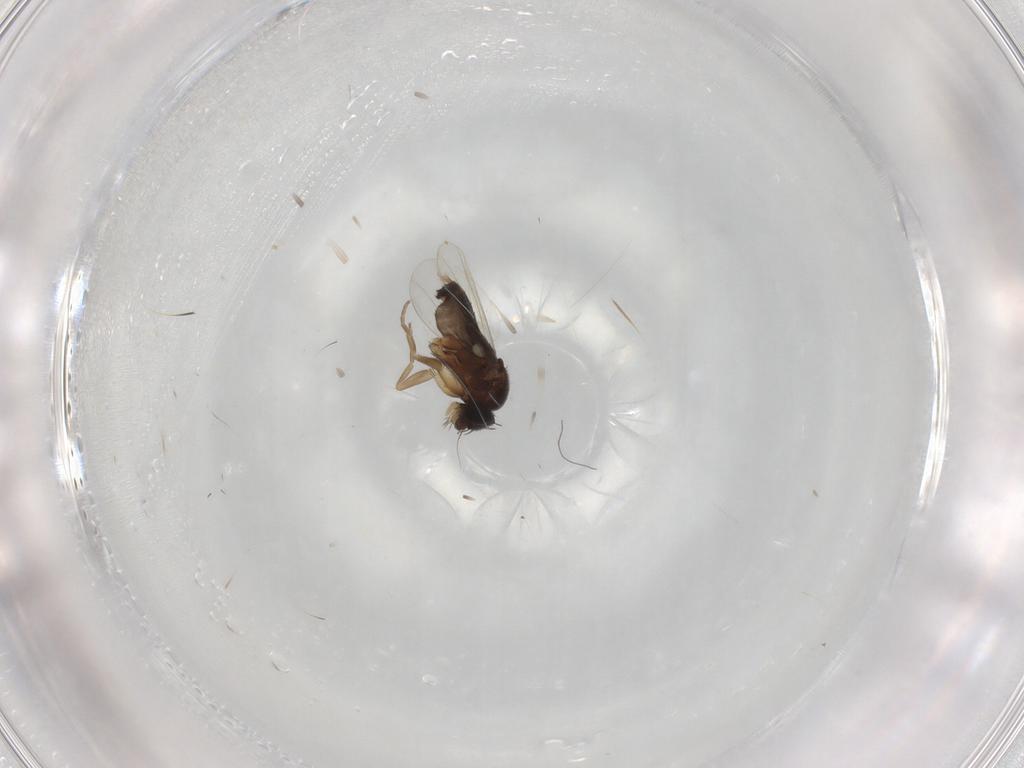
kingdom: Animalia
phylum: Arthropoda
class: Insecta
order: Diptera
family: Phoridae
